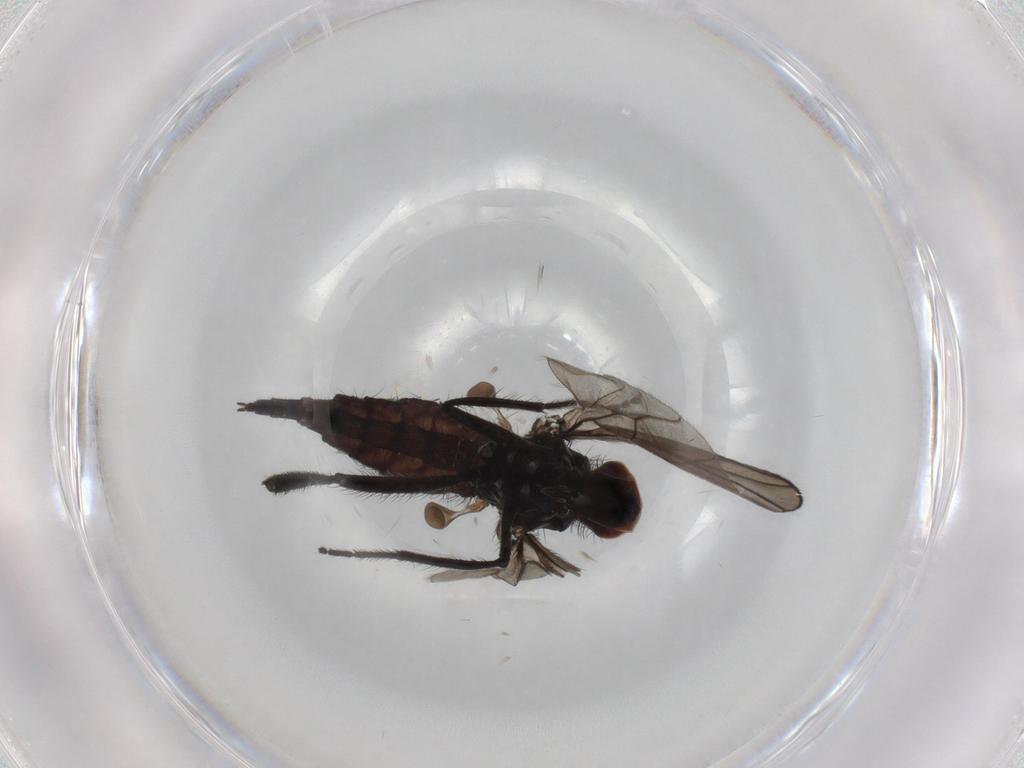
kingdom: Animalia
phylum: Arthropoda
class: Insecta
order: Diptera
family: Hybotidae
